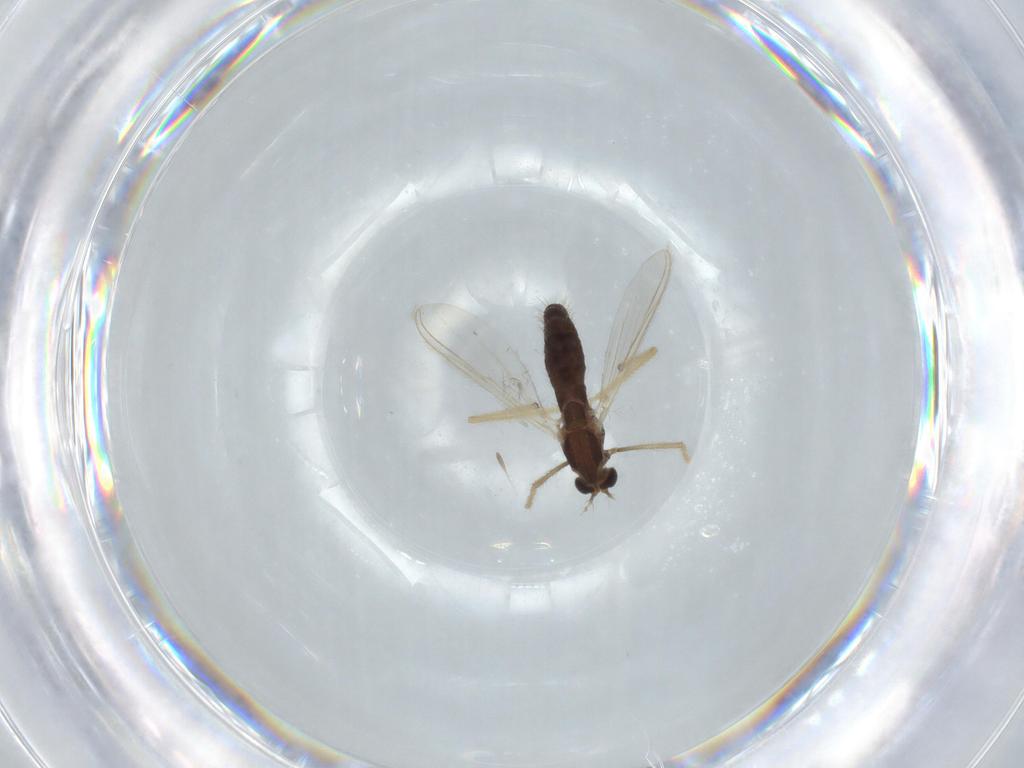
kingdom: Animalia
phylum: Arthropoda
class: Insecta
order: Diptera
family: Chironomidae
